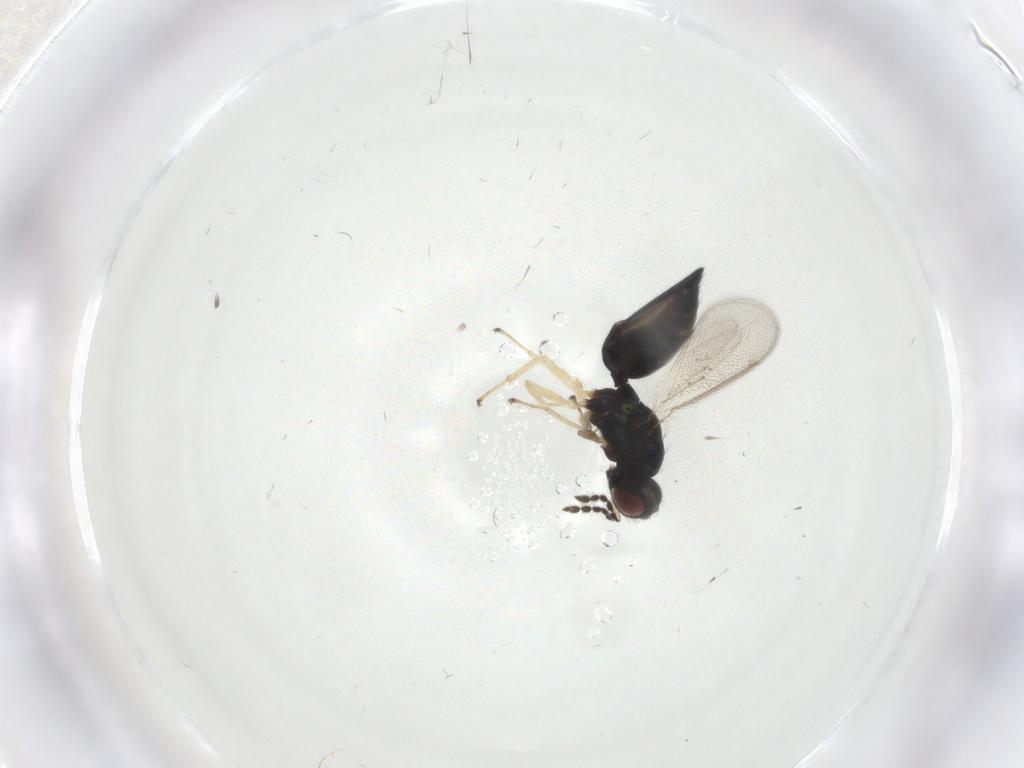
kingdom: Animalia
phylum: Arthropoda
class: Insecta
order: Hymenoptera
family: Eulophidae
